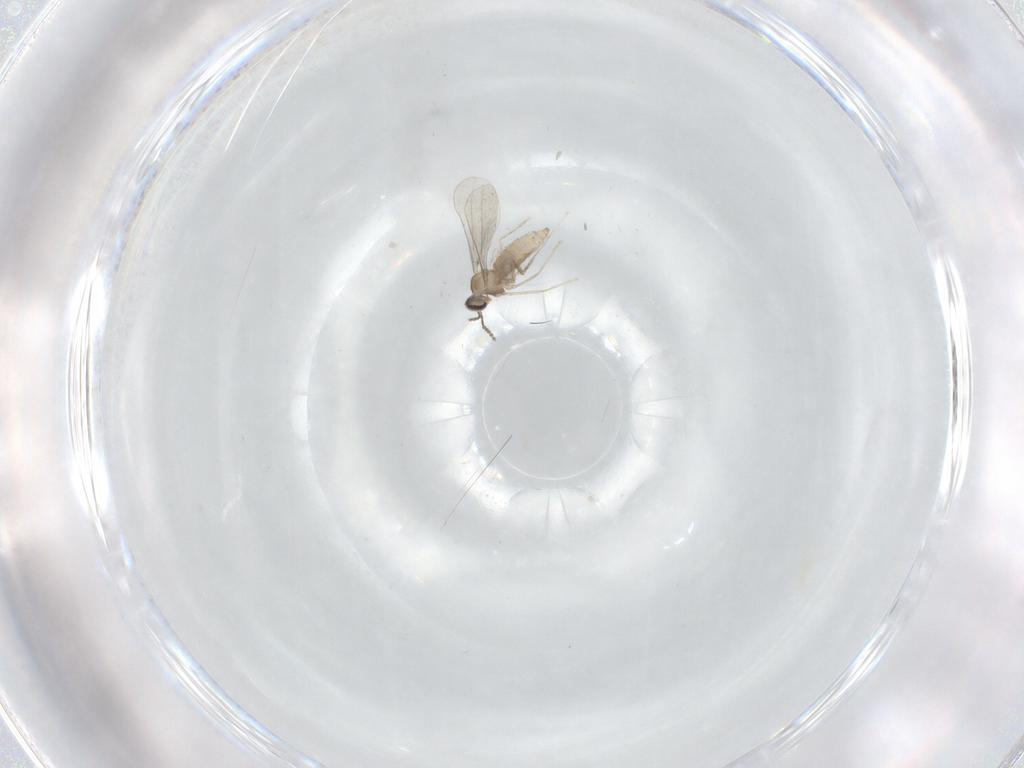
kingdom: Animalia
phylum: Arthropoda
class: Insecta
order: Diptera
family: Cecidomyiidae
